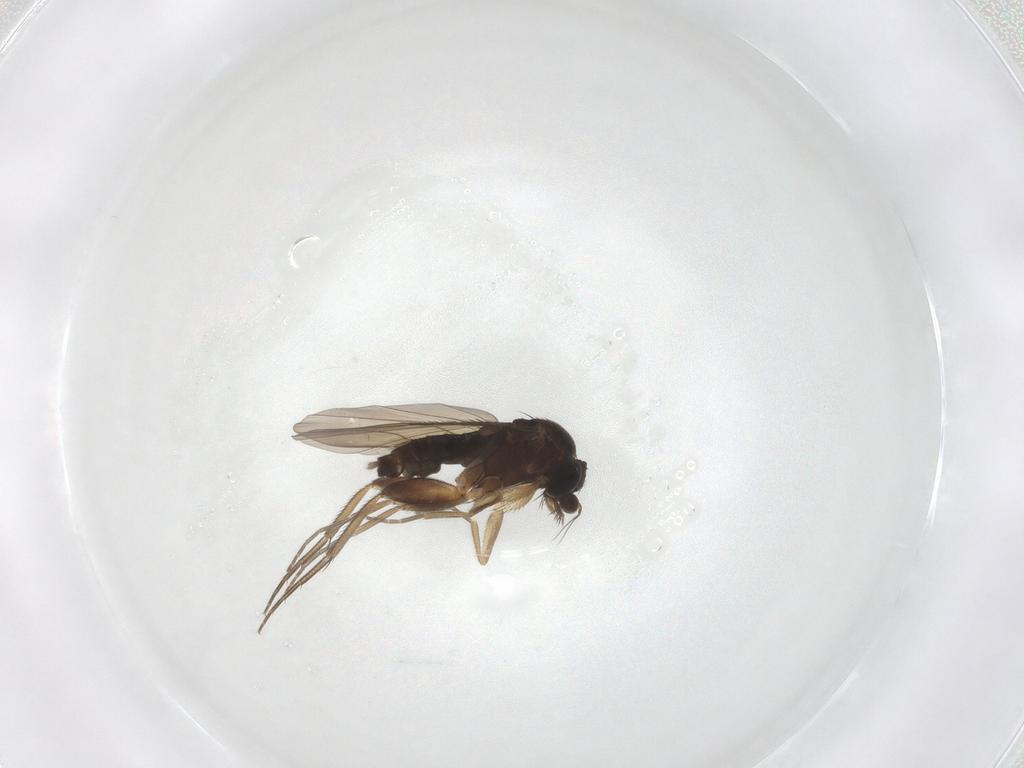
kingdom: Animalia
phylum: Arthropoda
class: Insecta
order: Diptera
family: Phoridae
